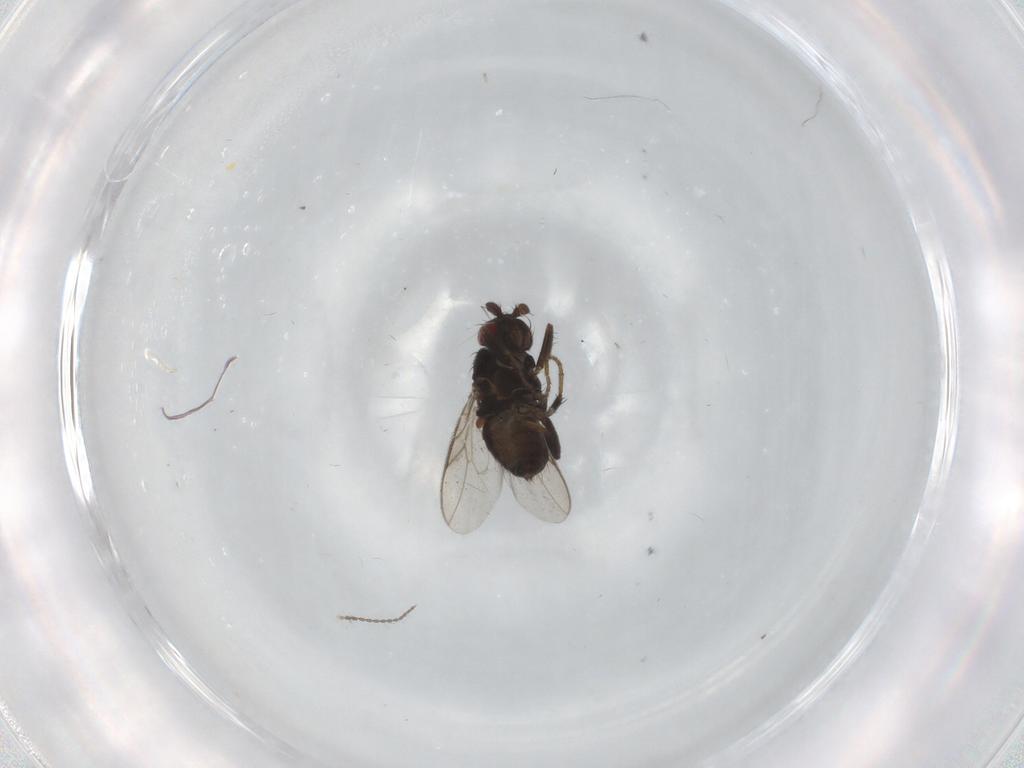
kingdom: Animalia
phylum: Arthropoda
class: Insecta
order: Diptera
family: Sphaeroceridae
